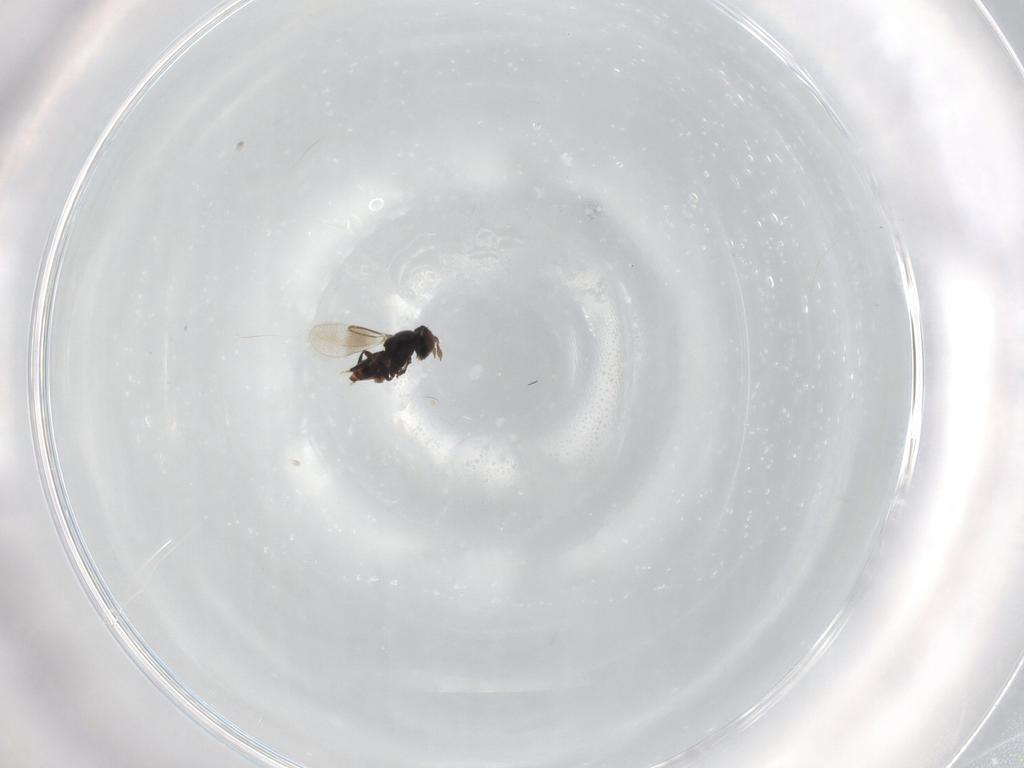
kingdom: Animalia
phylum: Arthropoda
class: Insecta
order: Hymenoptera
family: Eulophidae
